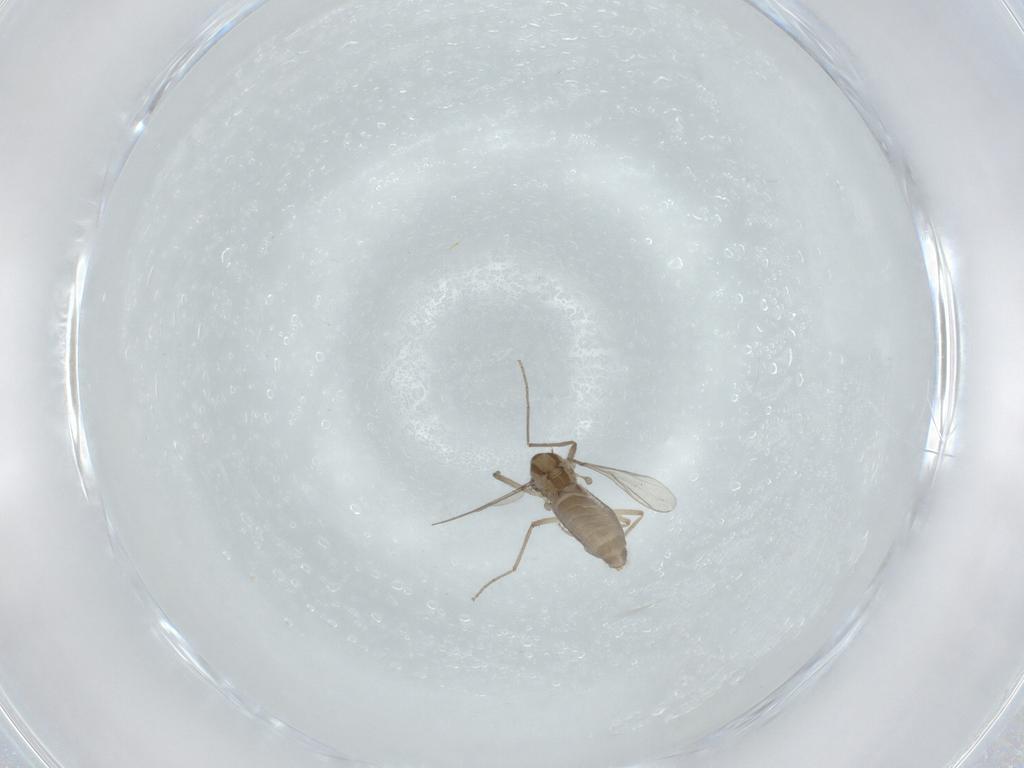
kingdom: Animalia
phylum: Arthropoda
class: Insecta
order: Diptera
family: Chironomidae
